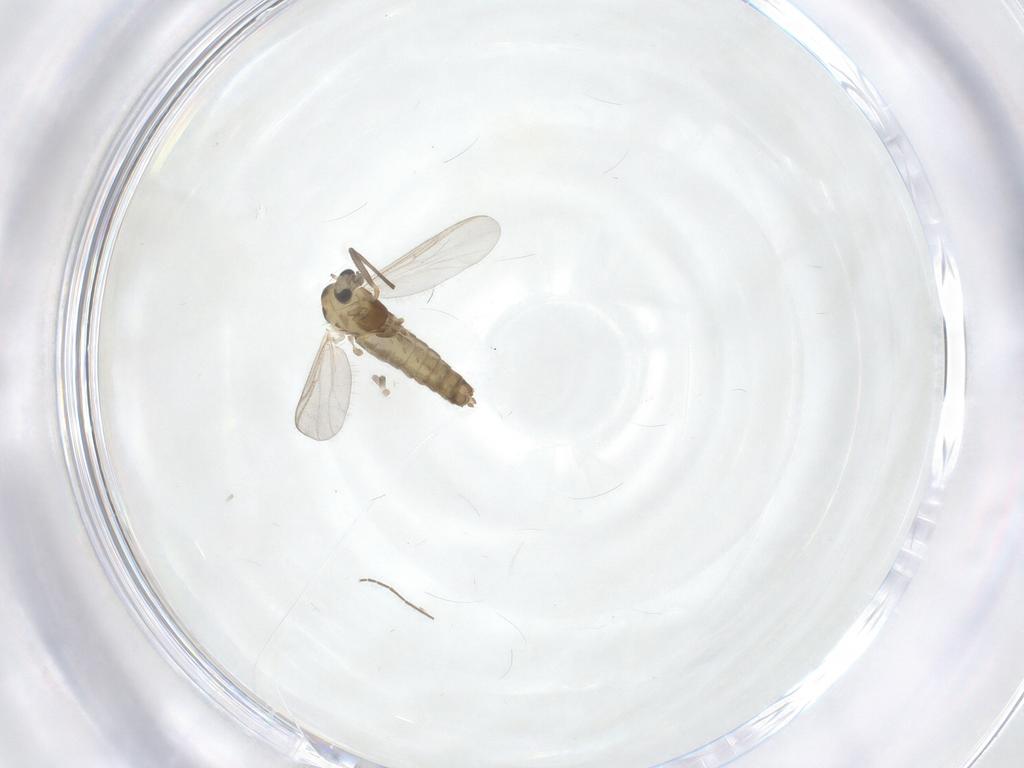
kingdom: Animalia
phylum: Arthropoda
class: Insecta
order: Diptera
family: Chironomidae
